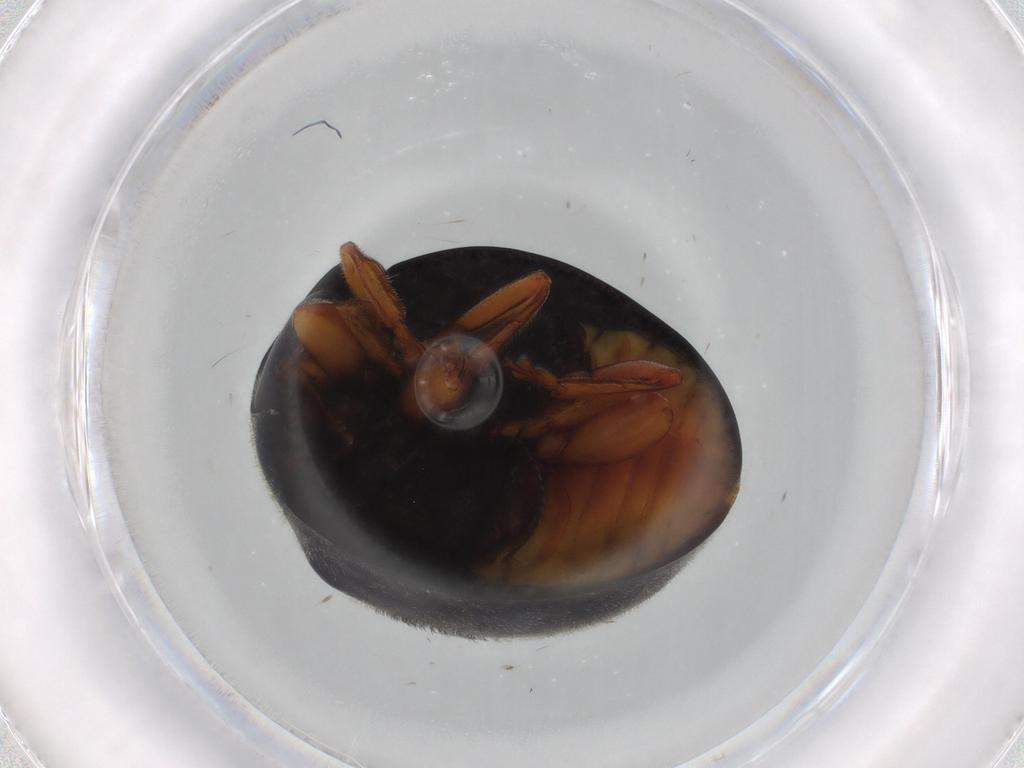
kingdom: Animalia
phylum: Arthropoda
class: Insecta
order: Coleoptera
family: Coccinellidae
